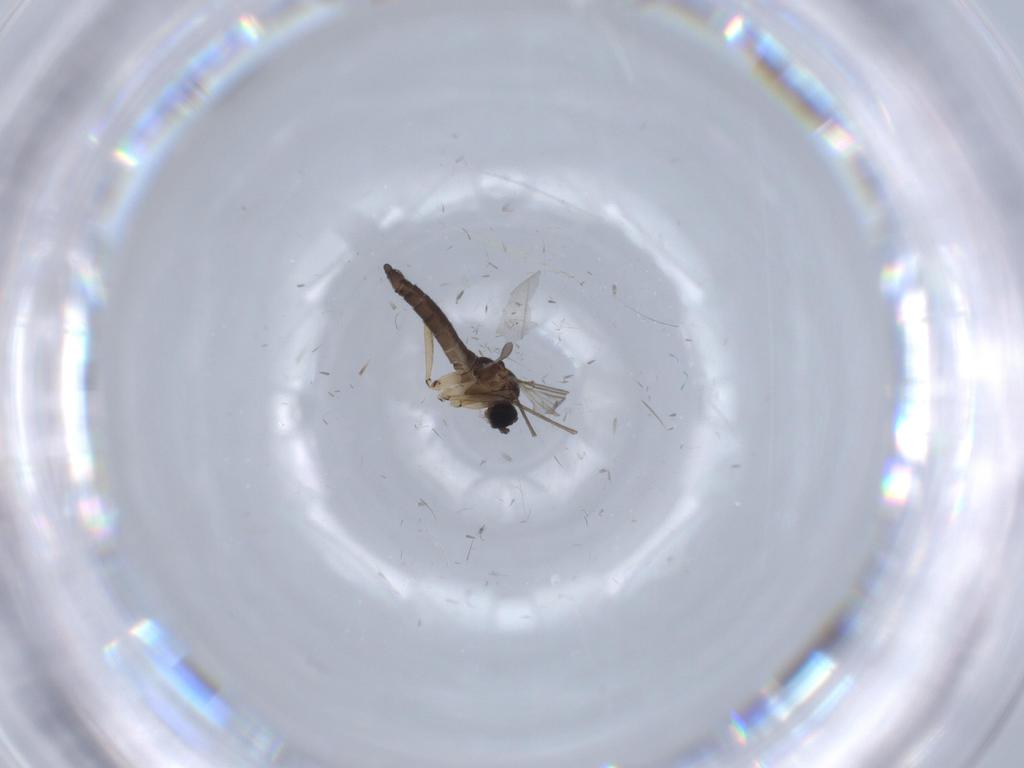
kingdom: Animalia
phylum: Arthropoda
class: Insecta
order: Diptera
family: Cecidomyiidae
